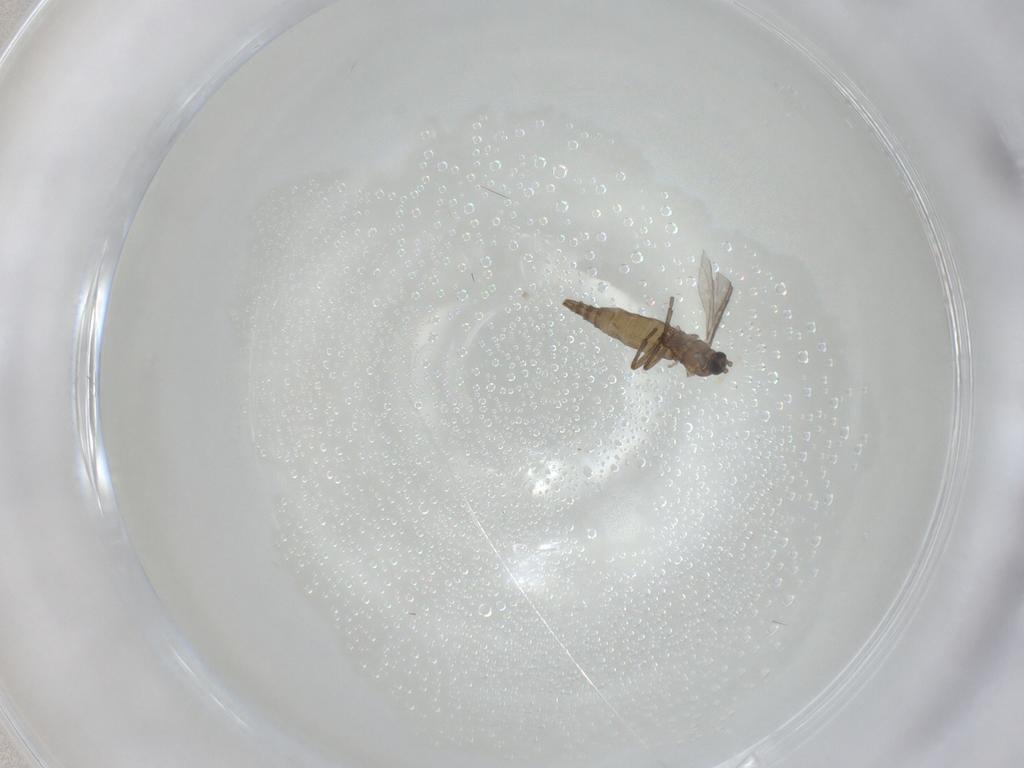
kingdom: Animalia
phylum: Arthropoda
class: Insecta
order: Diptera
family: Sciaridae
